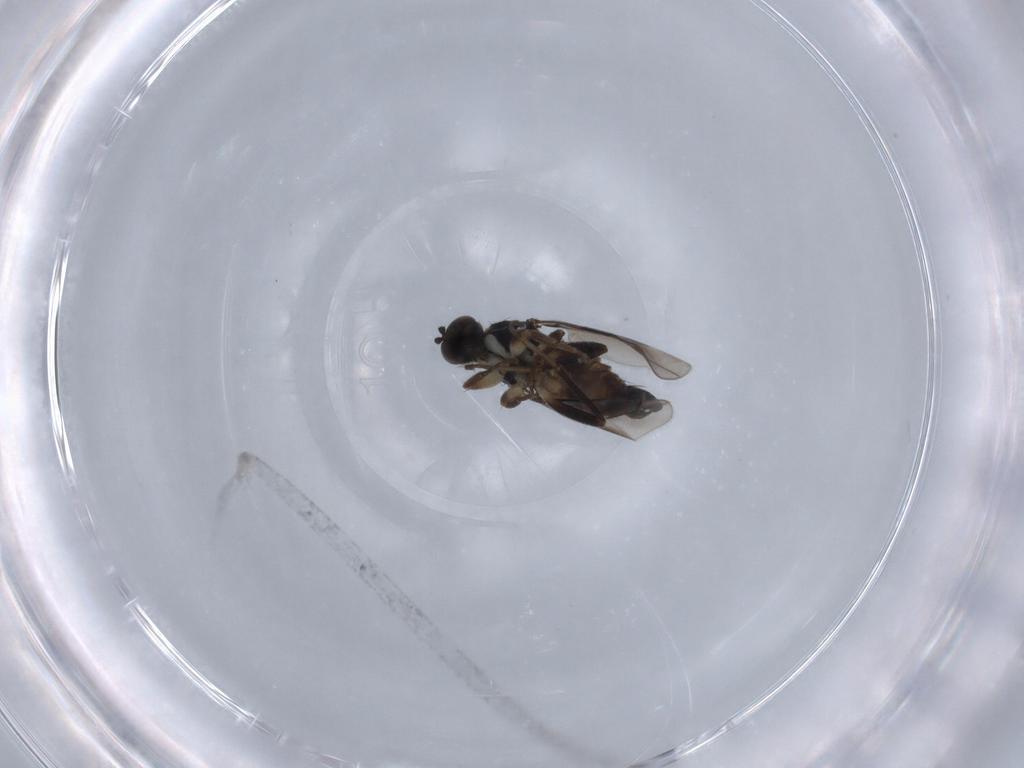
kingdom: Animalia
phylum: Arthropoda
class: Insecta
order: Diptera
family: Hybotidae
